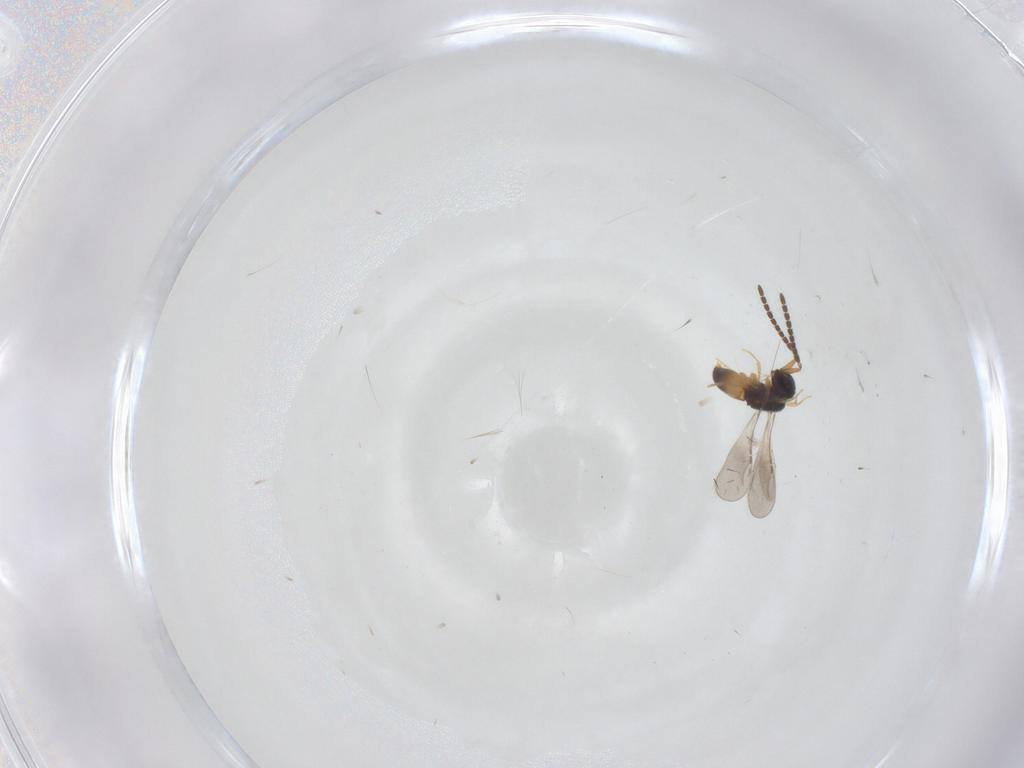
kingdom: Animalia
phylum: Arthropoda
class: Insecta
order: Hymenoptera
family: Ceraphronidae
